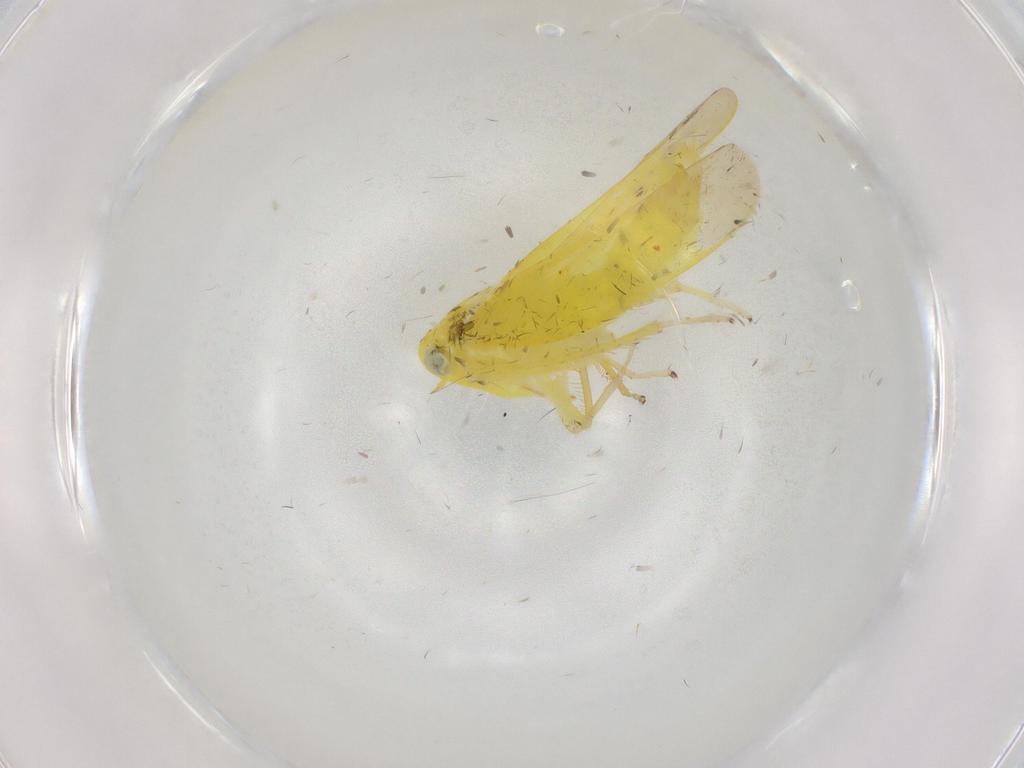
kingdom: Animalia
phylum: Arthropoda
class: Insecta
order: Hemiptera
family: Cicadellidae
